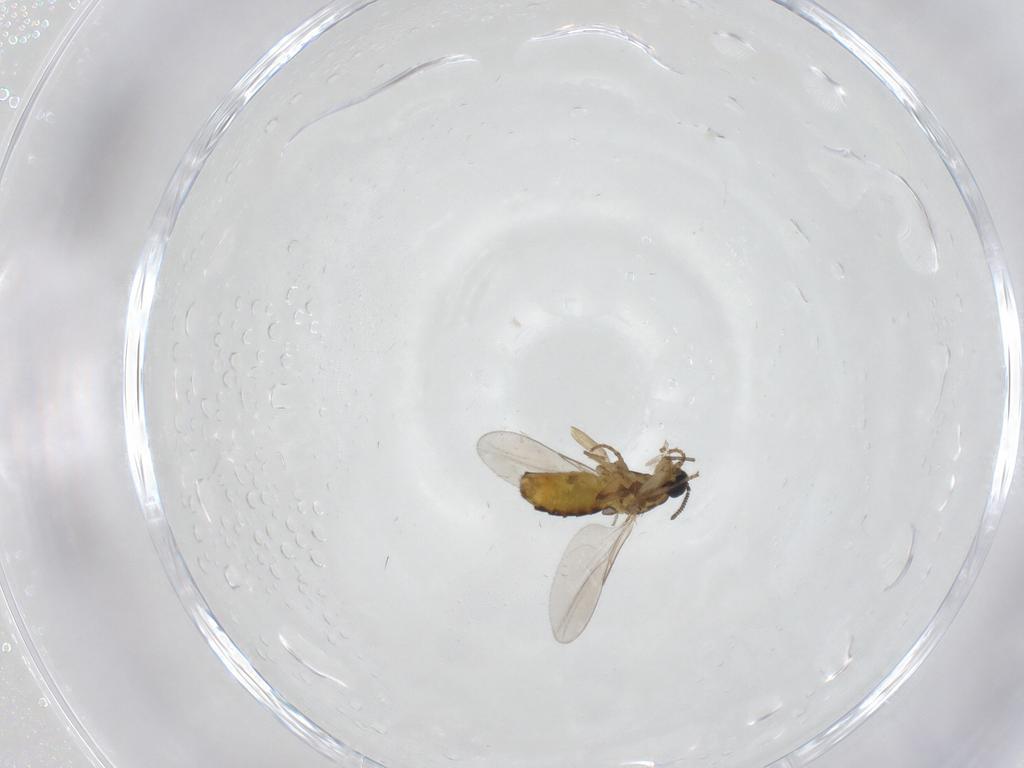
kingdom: Animalia
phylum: Arthropoda
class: Insecta
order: Diptera
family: Scatopsidae
